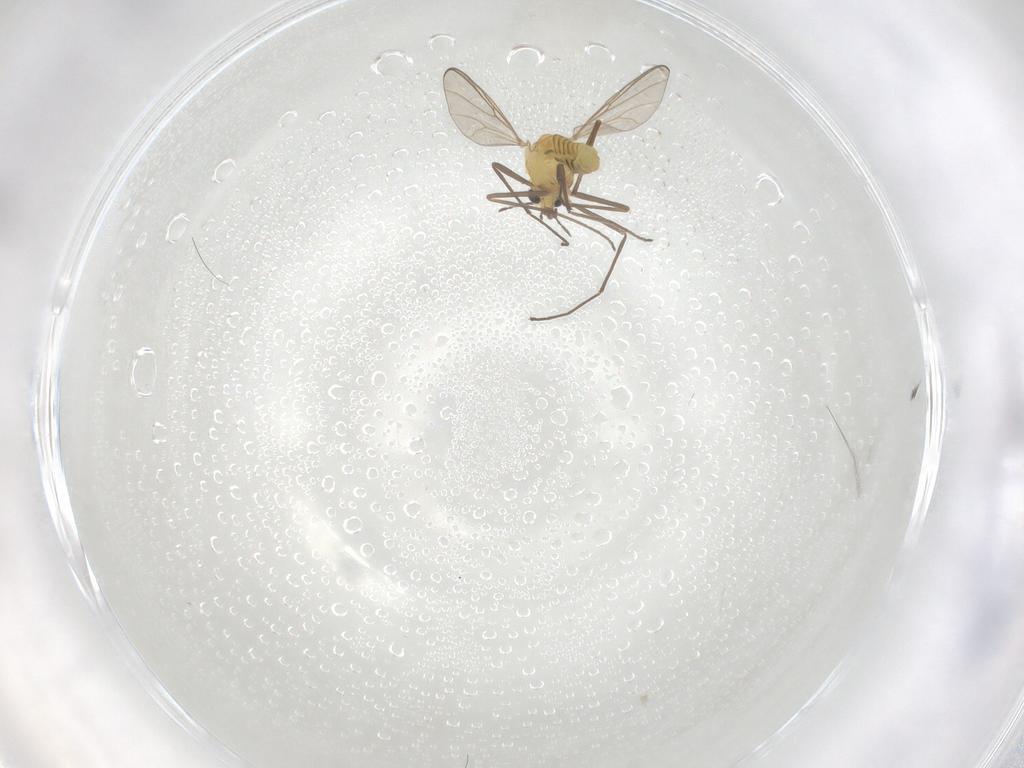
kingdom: Animalia
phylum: Arthropoda
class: Insecta
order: Diptera
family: Chironomidae
